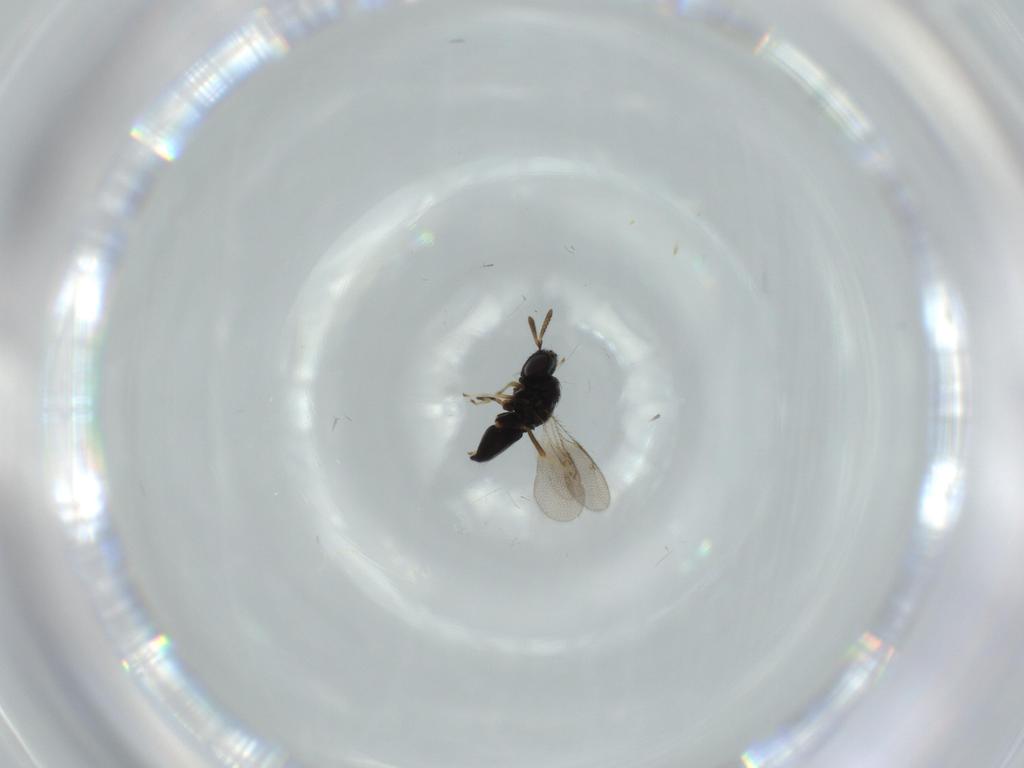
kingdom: Animalia
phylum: Arthropoda
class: Insecta
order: Hymenoptera
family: Pteromalidae
